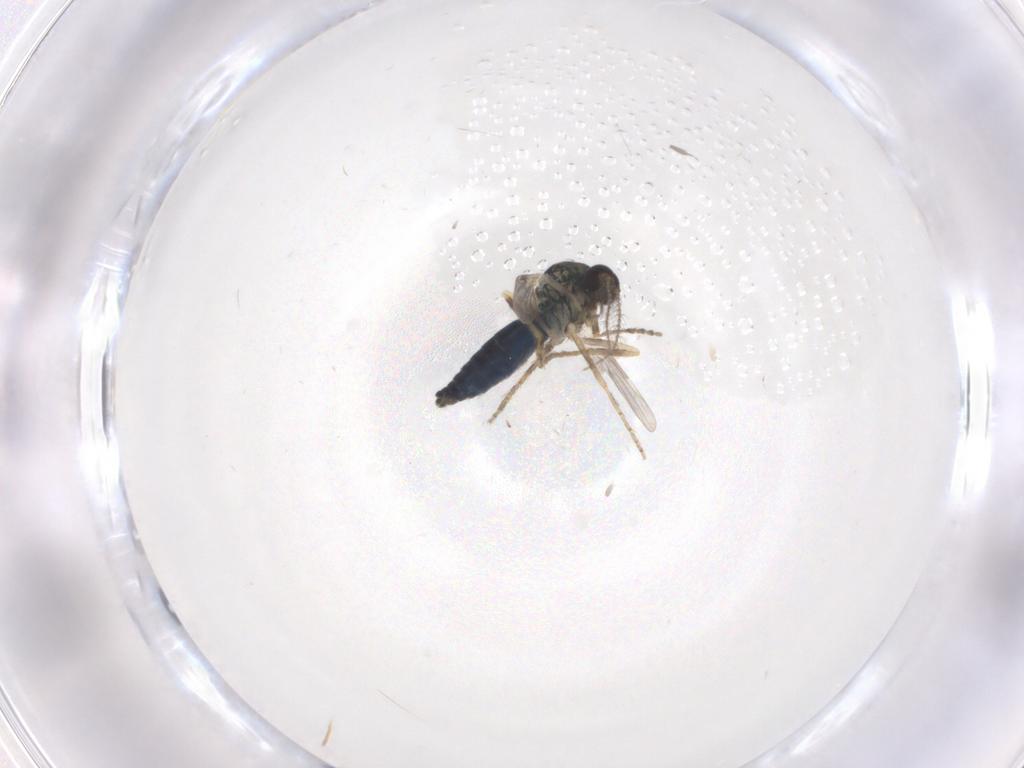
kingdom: Animalia
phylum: Arthropoda
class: Insecta
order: Diptera
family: Ceratopogonidae
